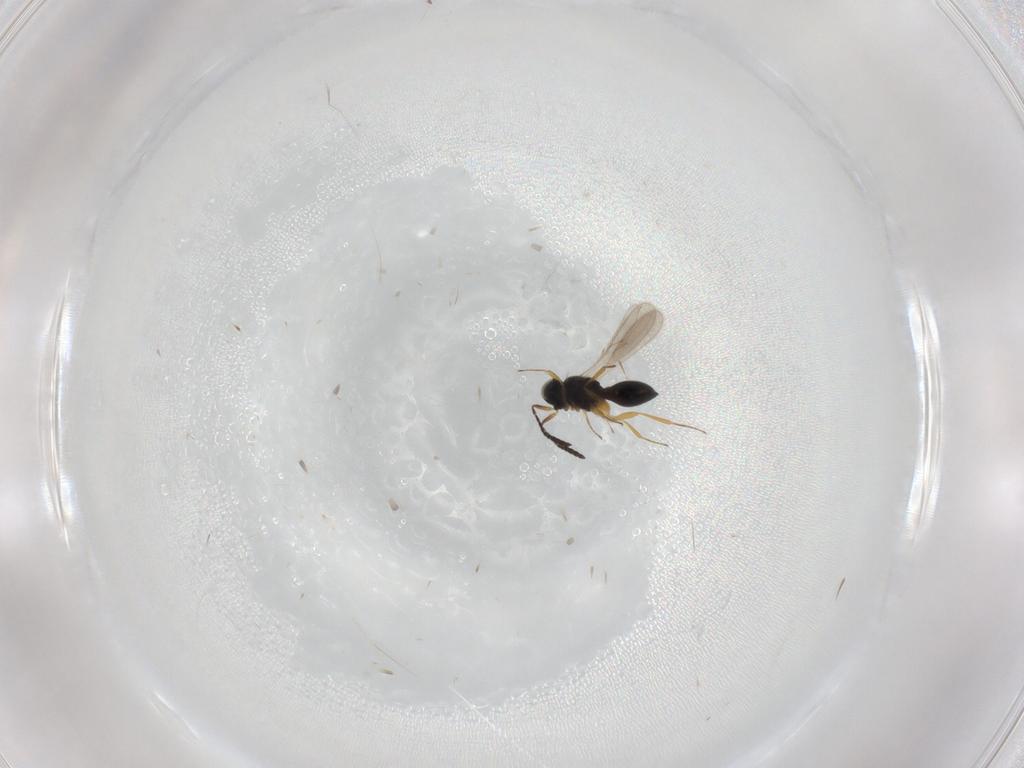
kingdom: Animalia
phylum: Arthropoda
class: Insecta
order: Hymenoptera
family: Scelionidae
